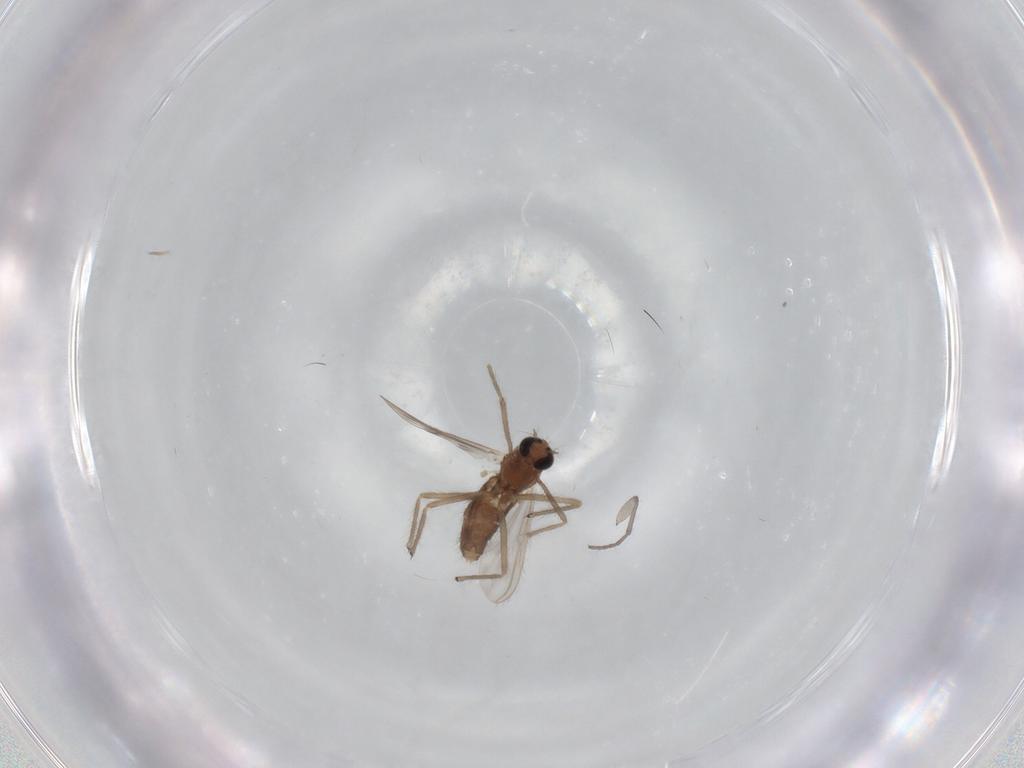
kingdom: Animalia
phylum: Arthropoda
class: Insecta
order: Diptera
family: Chironomidae
